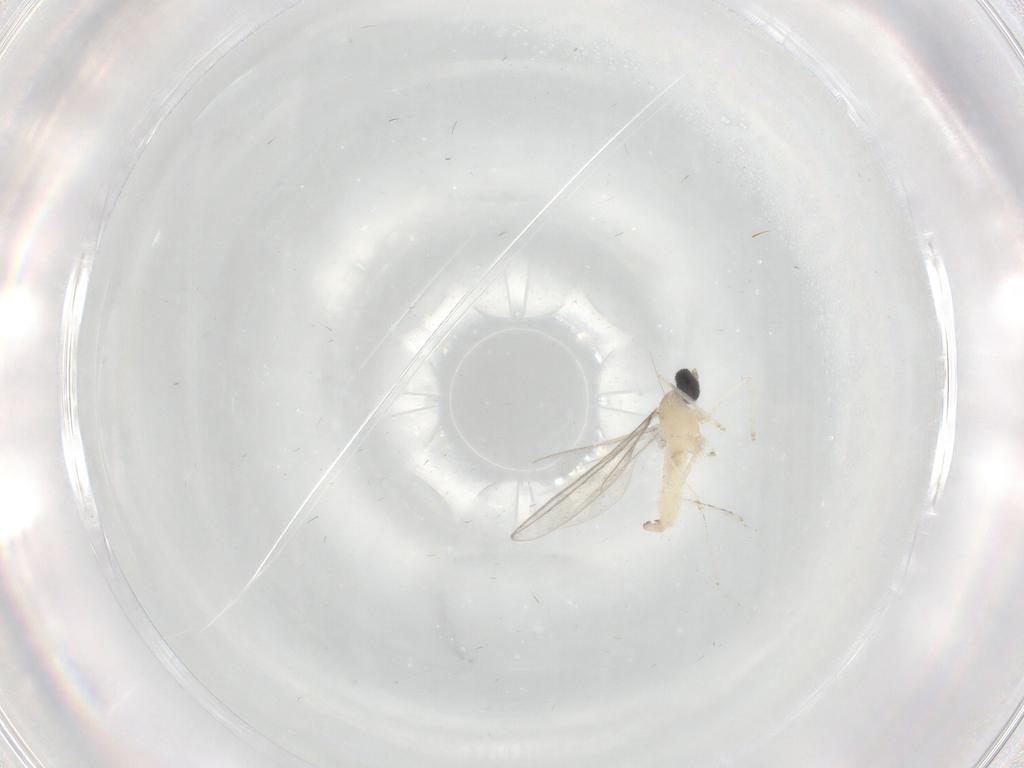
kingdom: Animalia
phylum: Arthropoda
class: Insecta
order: Diptera
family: Cecidomyiidae
